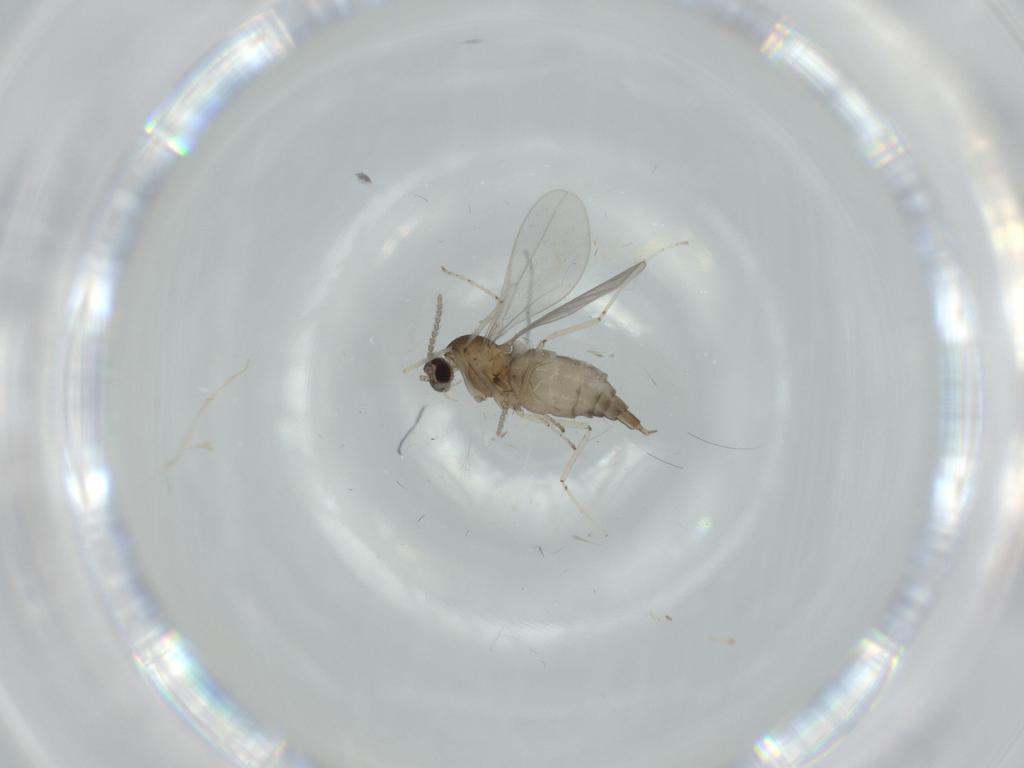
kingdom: Animalia
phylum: Arthropoda
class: Insecta
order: Diptera
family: Cecidomyiidae
